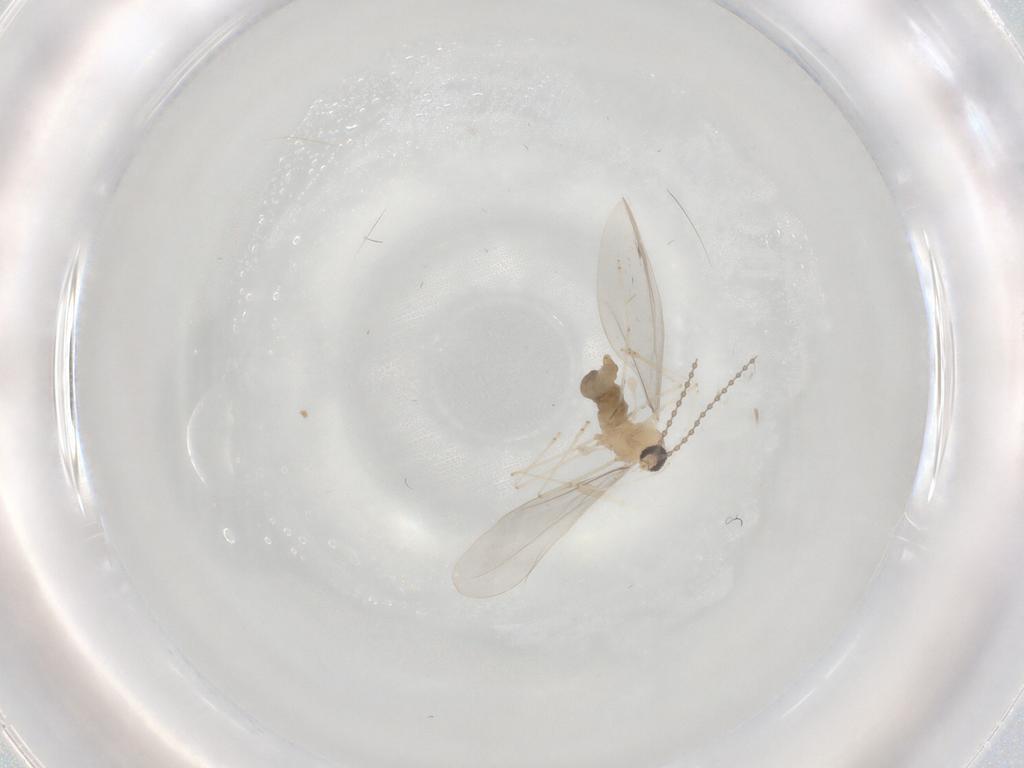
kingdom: Animalia
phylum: Arthropoda
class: Insecta
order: Diptera
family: Cecidomyiidae
